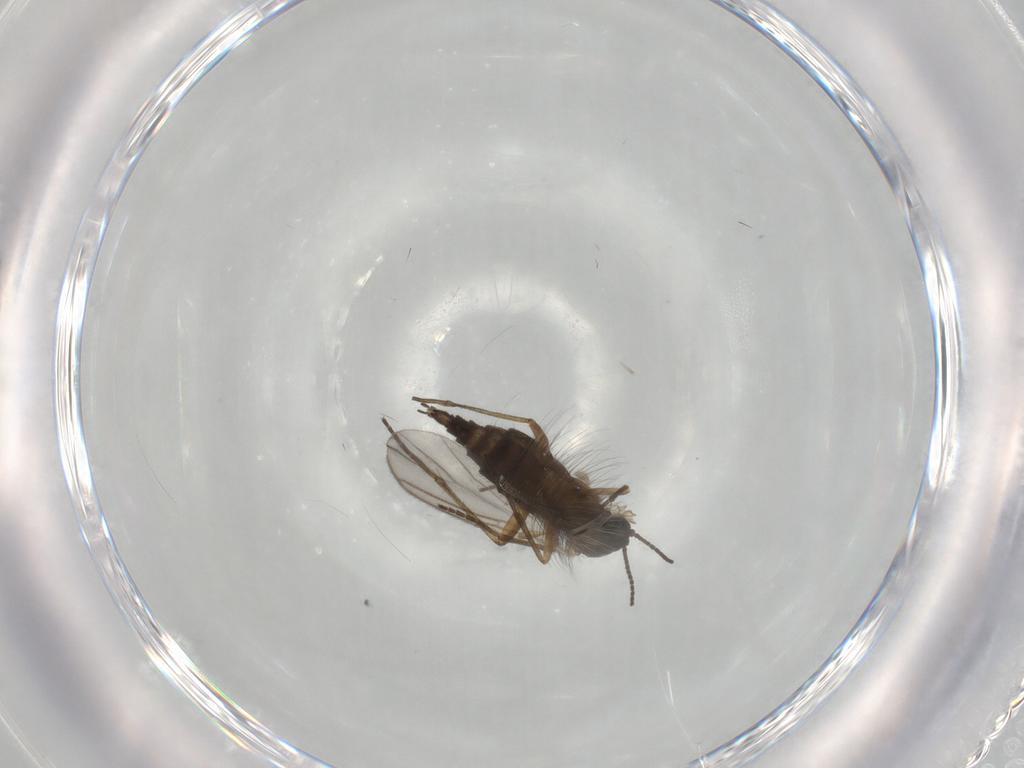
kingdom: Animalia
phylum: Arthropoda
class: Insecta
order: Diptera
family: Sciaridae
